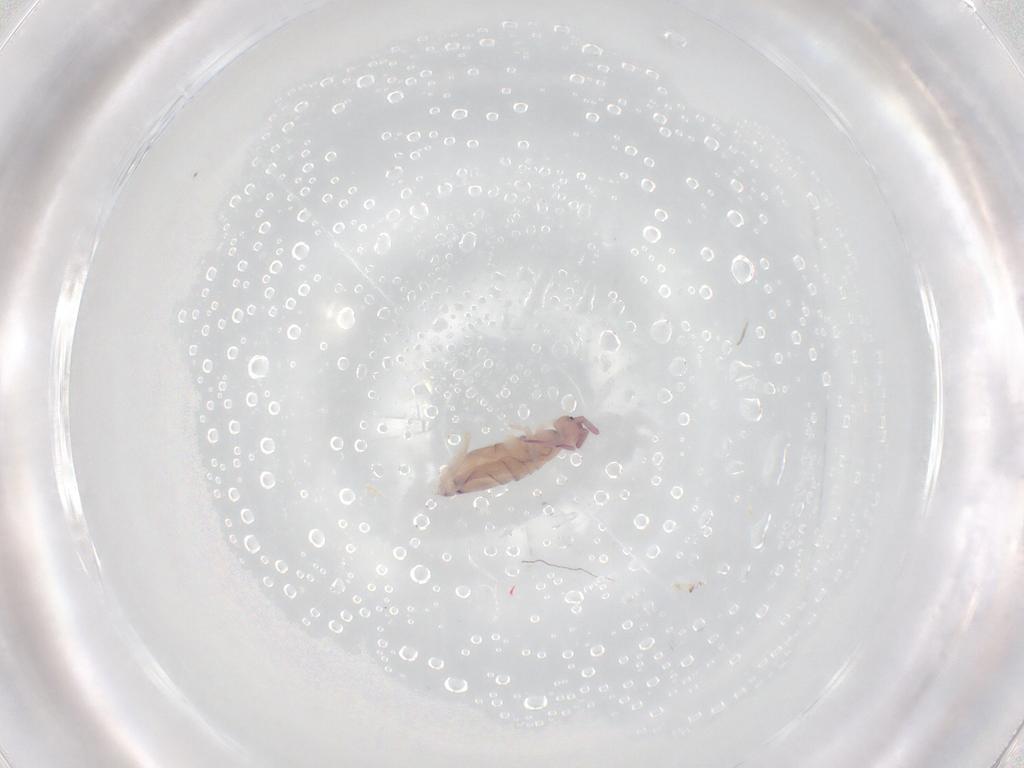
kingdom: Animalia
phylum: Arthropoda
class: Collembola
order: Entomobryomorpha
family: Entomobryidae
